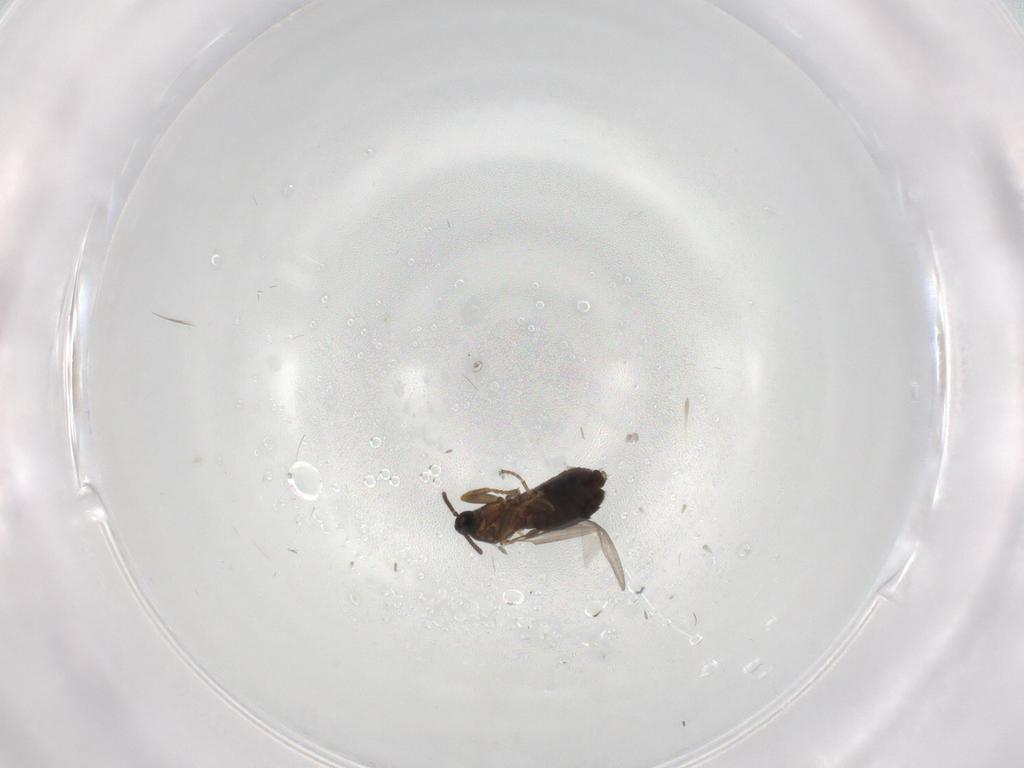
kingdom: Animalia
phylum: Arthropoda
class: Insecta
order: Diptera
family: Scatopsidae
